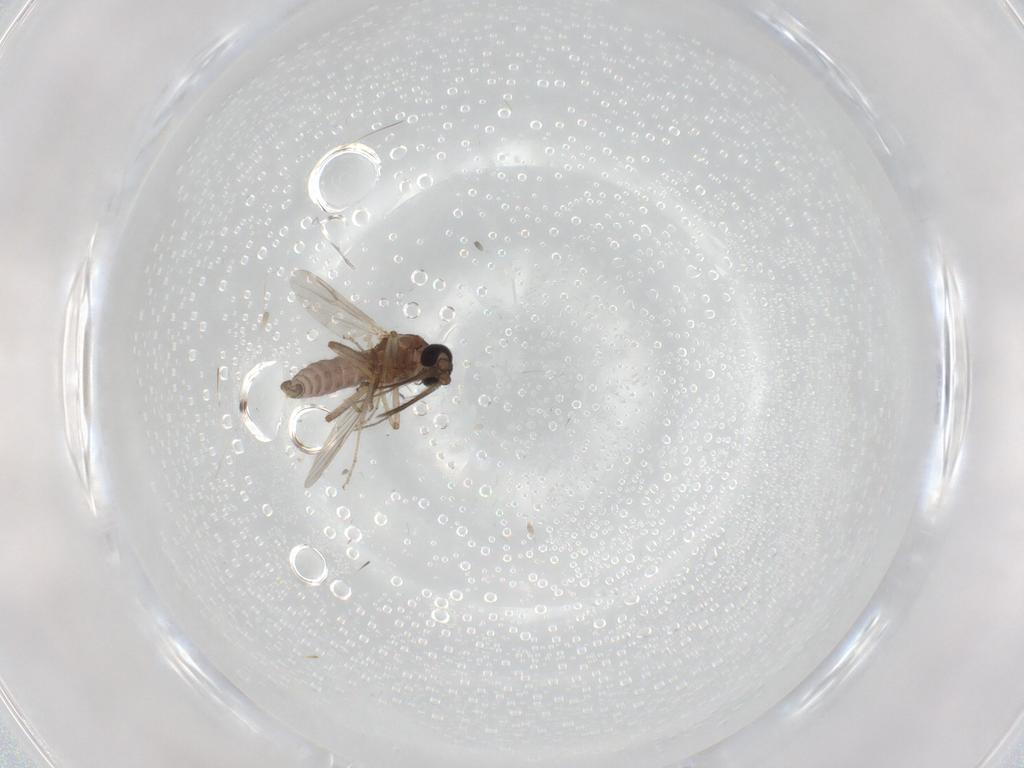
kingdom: Animalia
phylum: Arthropoda
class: Insecta
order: Diptera
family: Ceratopogonidae
